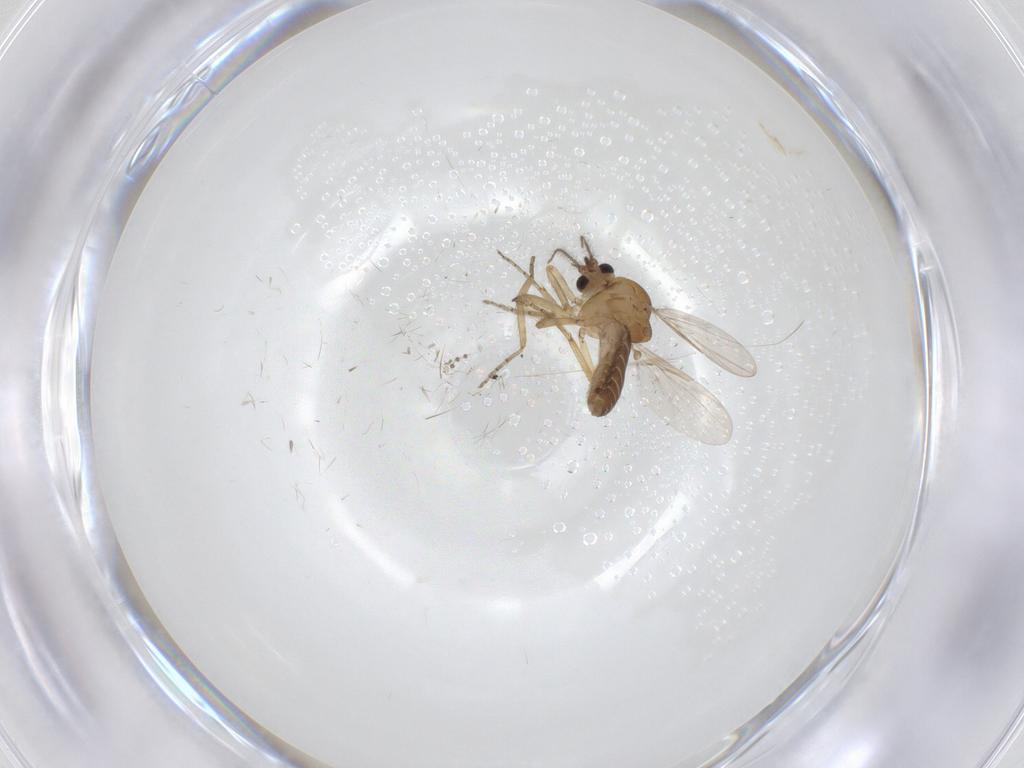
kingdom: Animalia
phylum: Arthropoda
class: Insecta
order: Diptera
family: Ceratopogonidae
